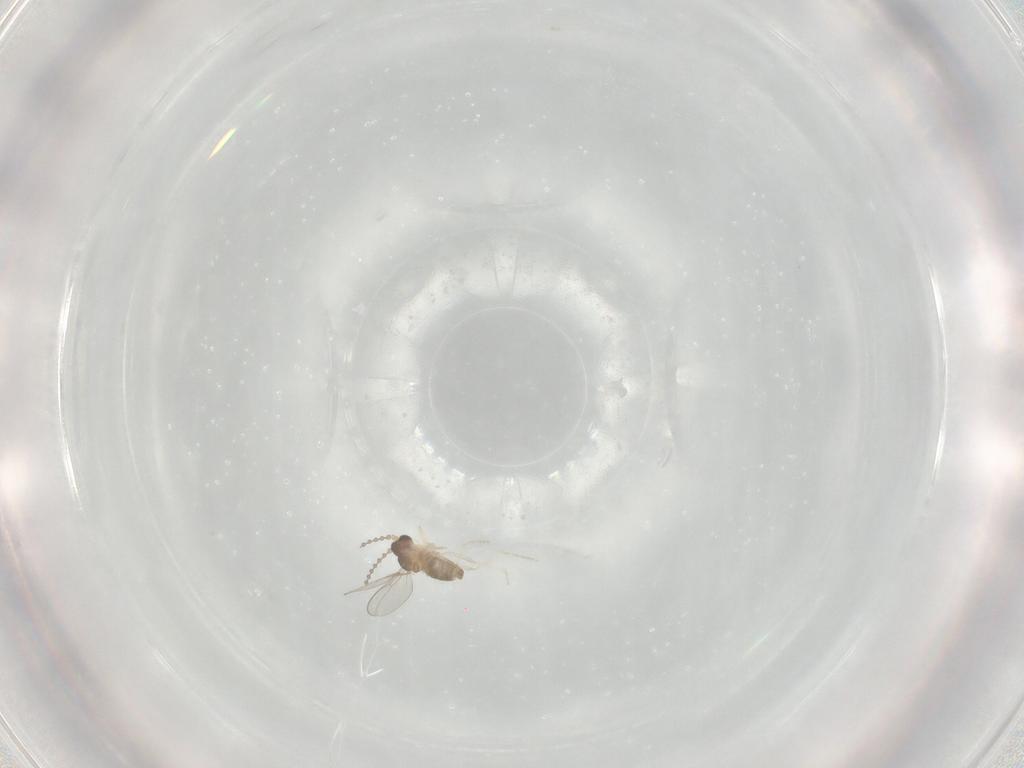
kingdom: Animalia
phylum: Arthropoda
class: Insecta
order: Diptera
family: Cecidomyiidae
